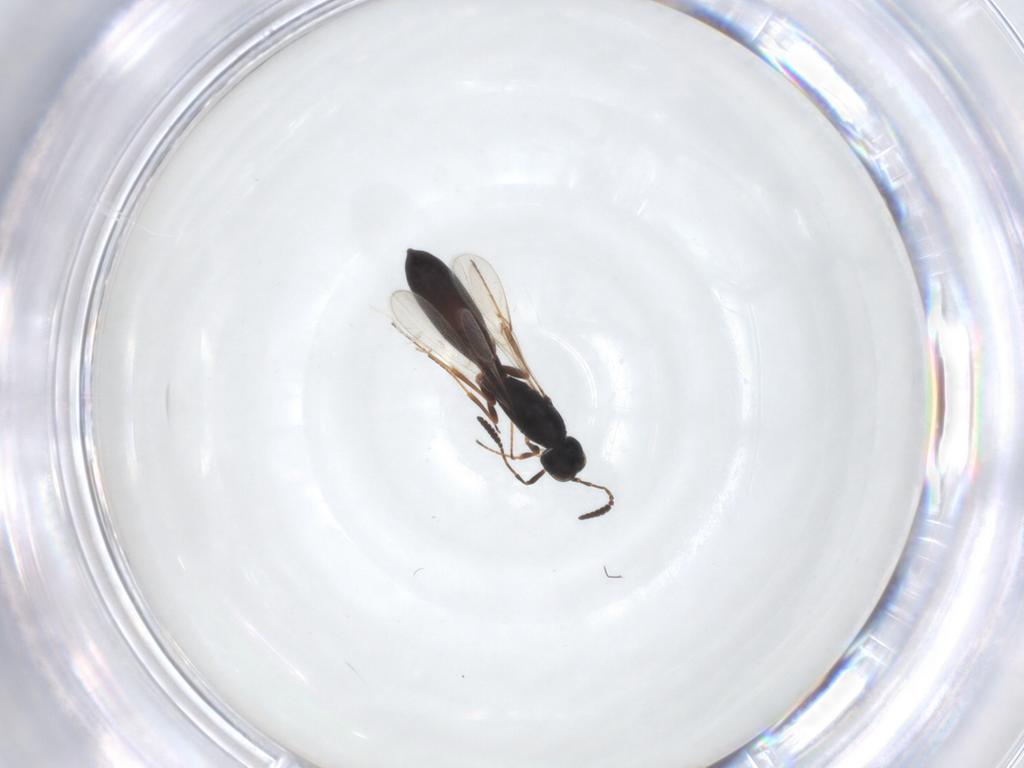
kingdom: Animalia
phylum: Arthropoda
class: Insecta
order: Hymenoptera
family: Scelionidae
